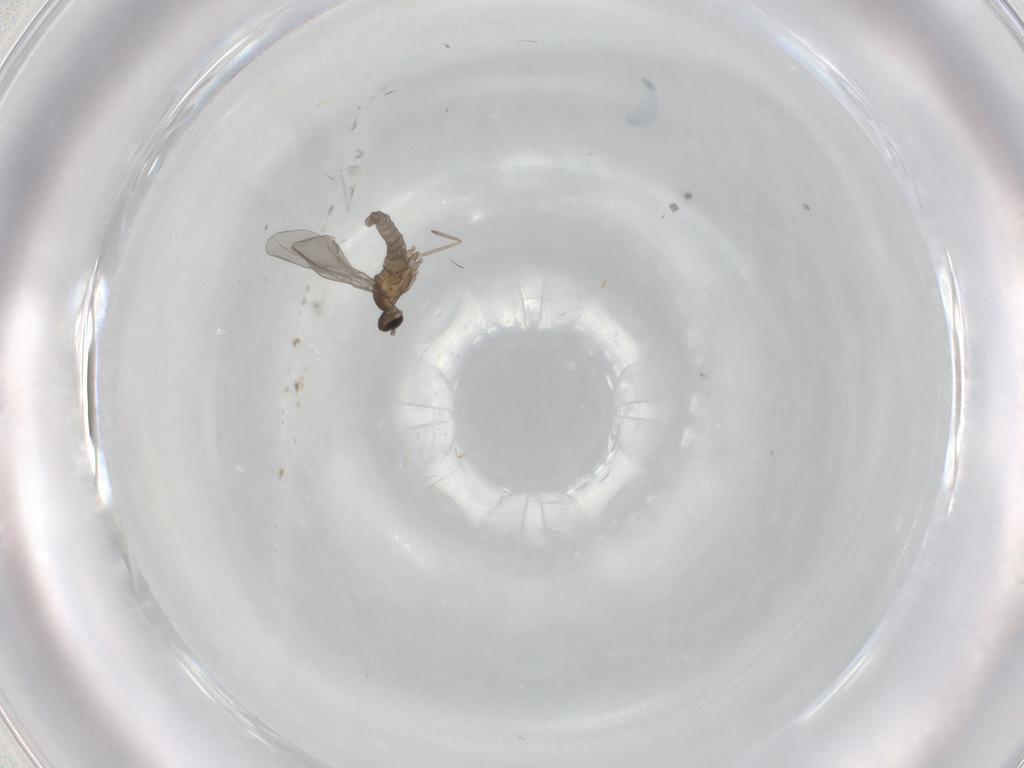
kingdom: Animalia
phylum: Arthropoda
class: Insecta
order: Diptera
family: Cecidomyiidae
